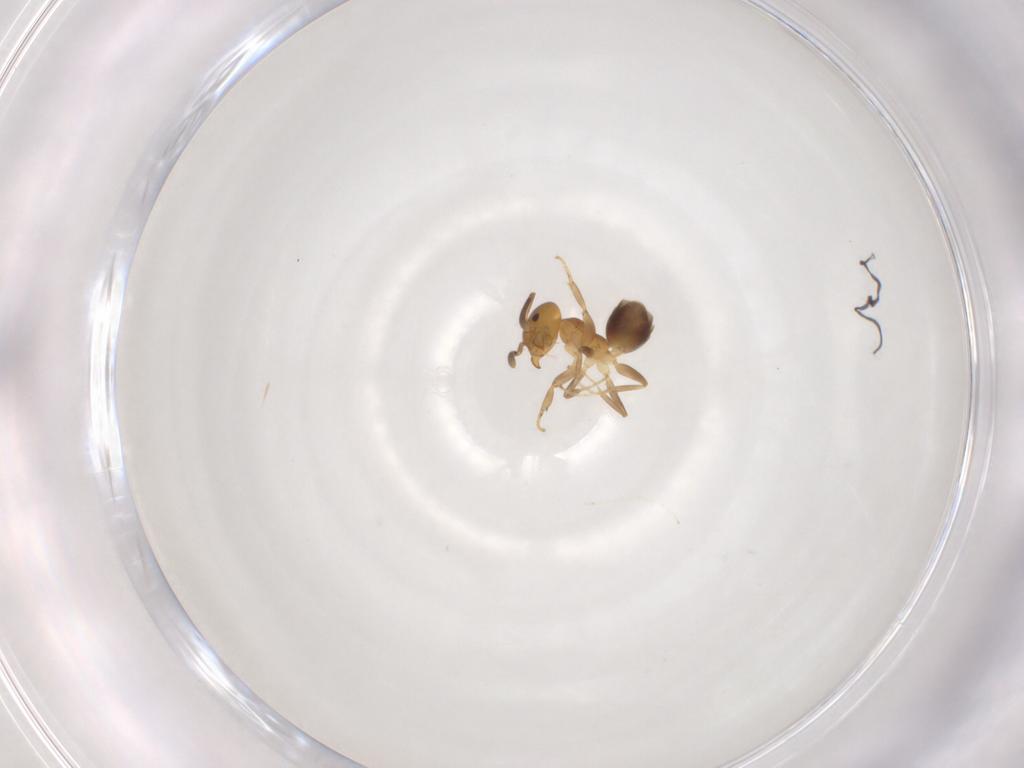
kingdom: Animalia
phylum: Arthropoda
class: Insecta
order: Hymenoptera
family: Formicidae
